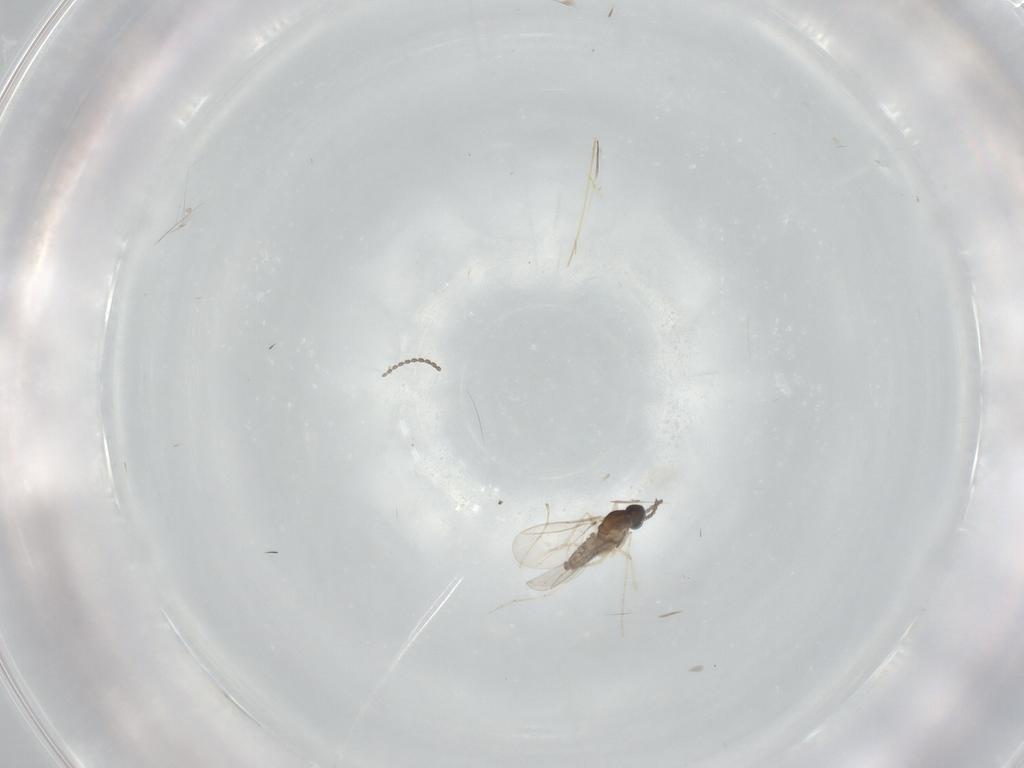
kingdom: Animalia
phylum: Arthropoda
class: Insecta
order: Diptera
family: Cecidomyiidae
